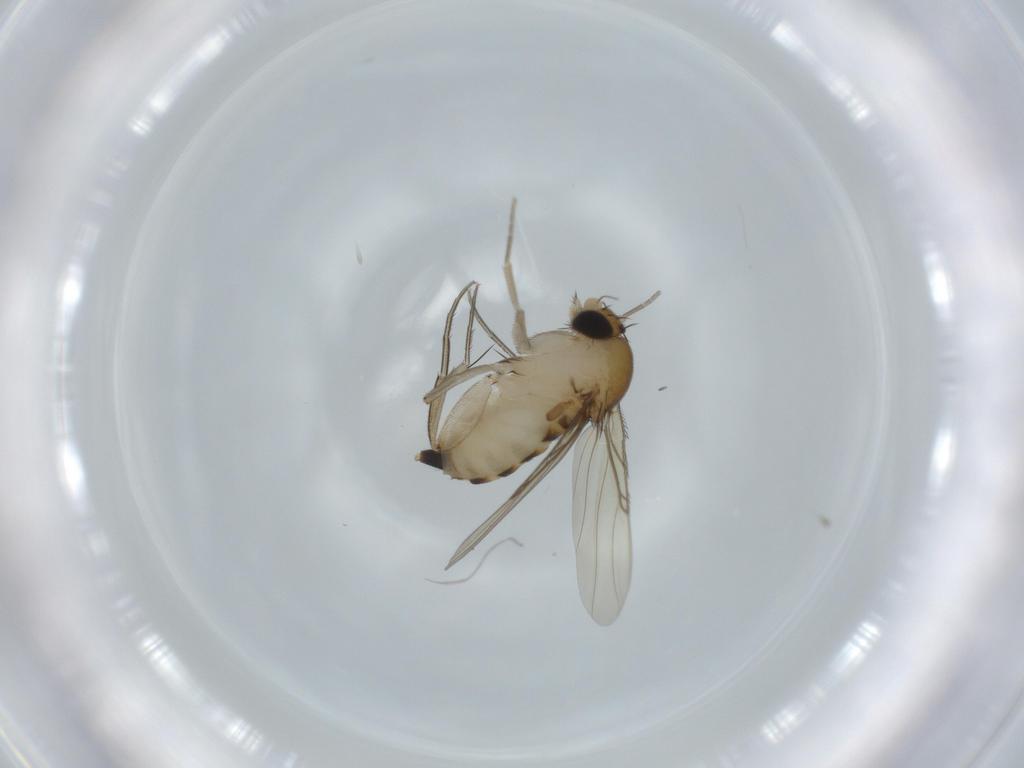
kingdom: Animalia
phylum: Arthropoda
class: Insecta
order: Diptera
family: Phoridae
